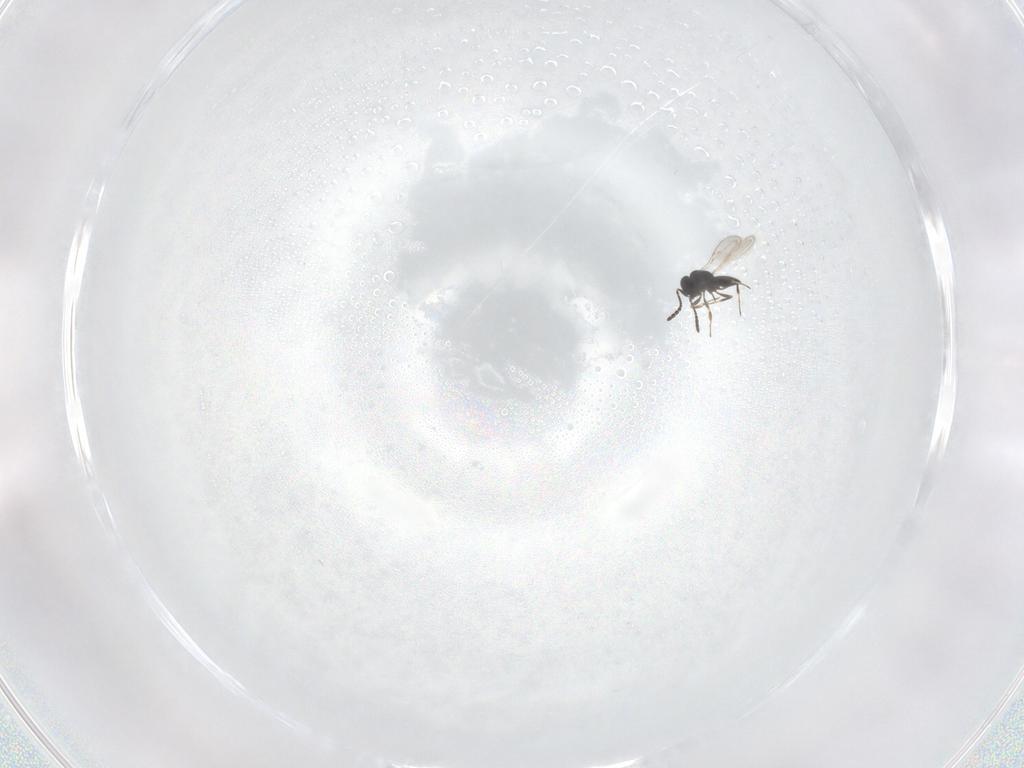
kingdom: Animalia
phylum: Arthropoda
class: Insecta
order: Hymenoptera
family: Scelionidae
